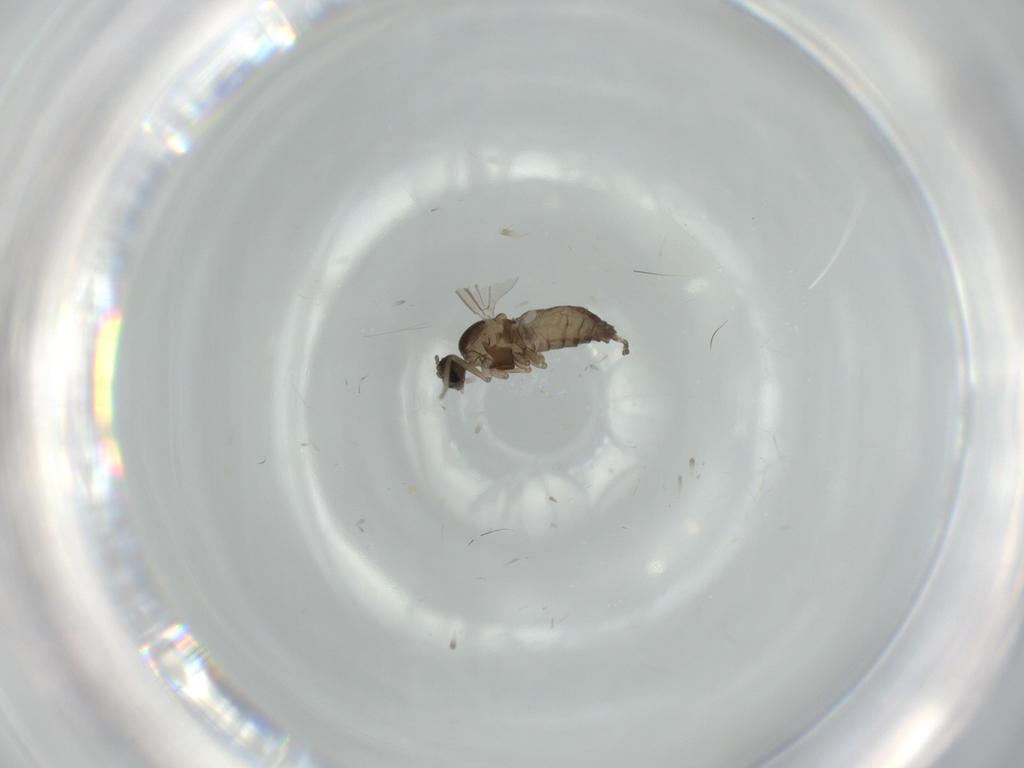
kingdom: Animalia
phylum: Arthropoda
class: Insecta
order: Diptera
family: Cecidomyiidae
